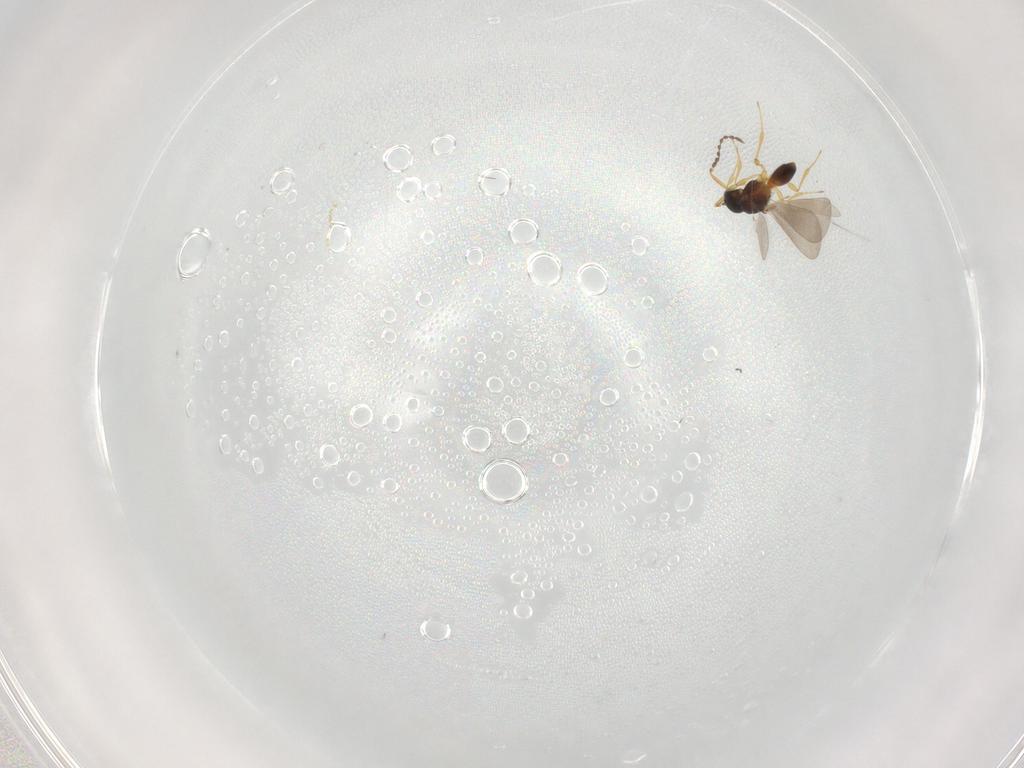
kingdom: Animalia
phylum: Arthropoda
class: Insecta
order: Hymenoptera
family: Platygastridae
